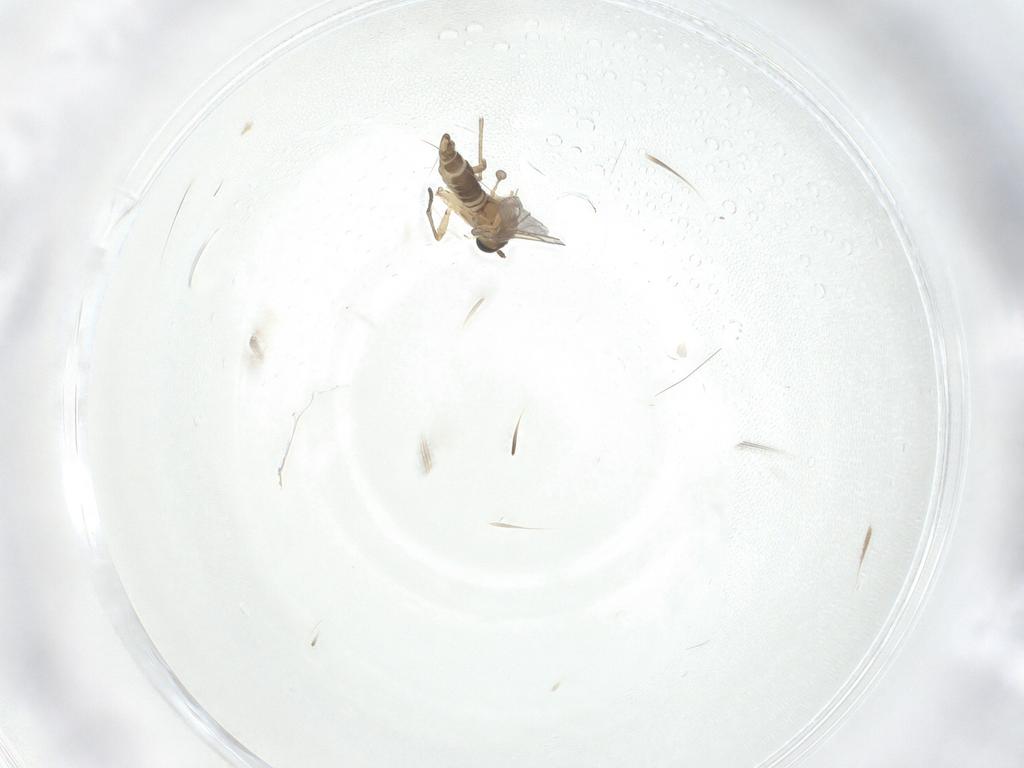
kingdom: Animalia
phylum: Arthropoda
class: Insecta
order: Diptera
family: Sciaridae
